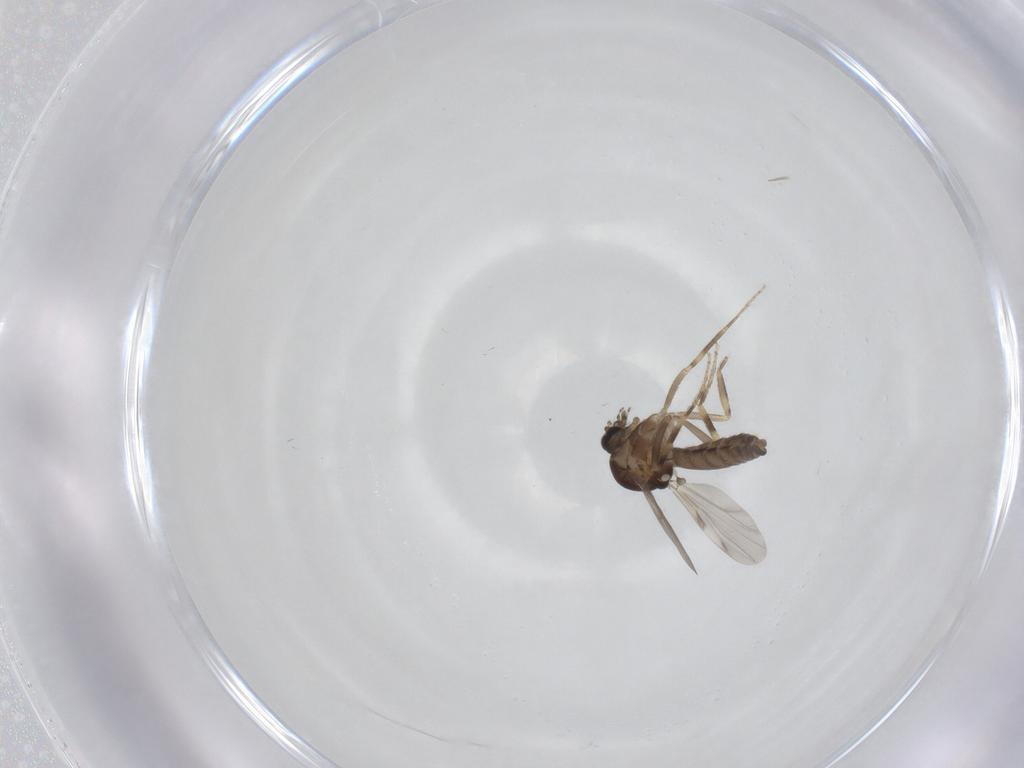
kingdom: Animalia
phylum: Arthropoda
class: Insecta
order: Diptera
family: Ceratopogonidae
